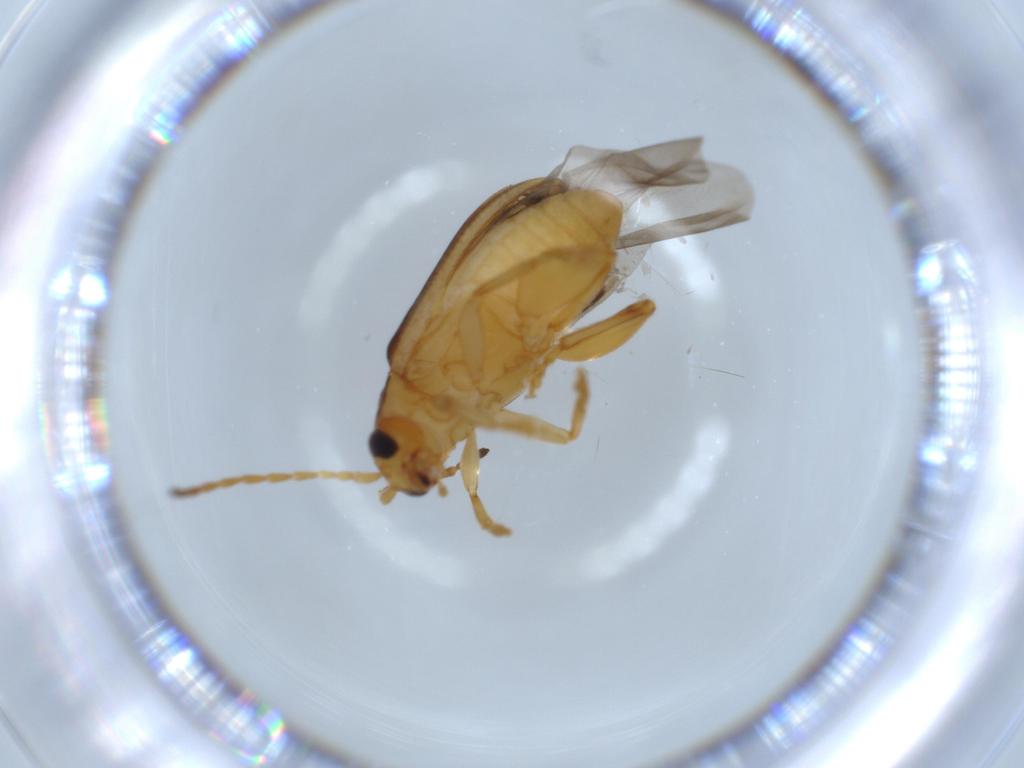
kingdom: Animalia
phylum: Arthropoda
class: Insecta
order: Coleoptera
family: Chrysomelidae
